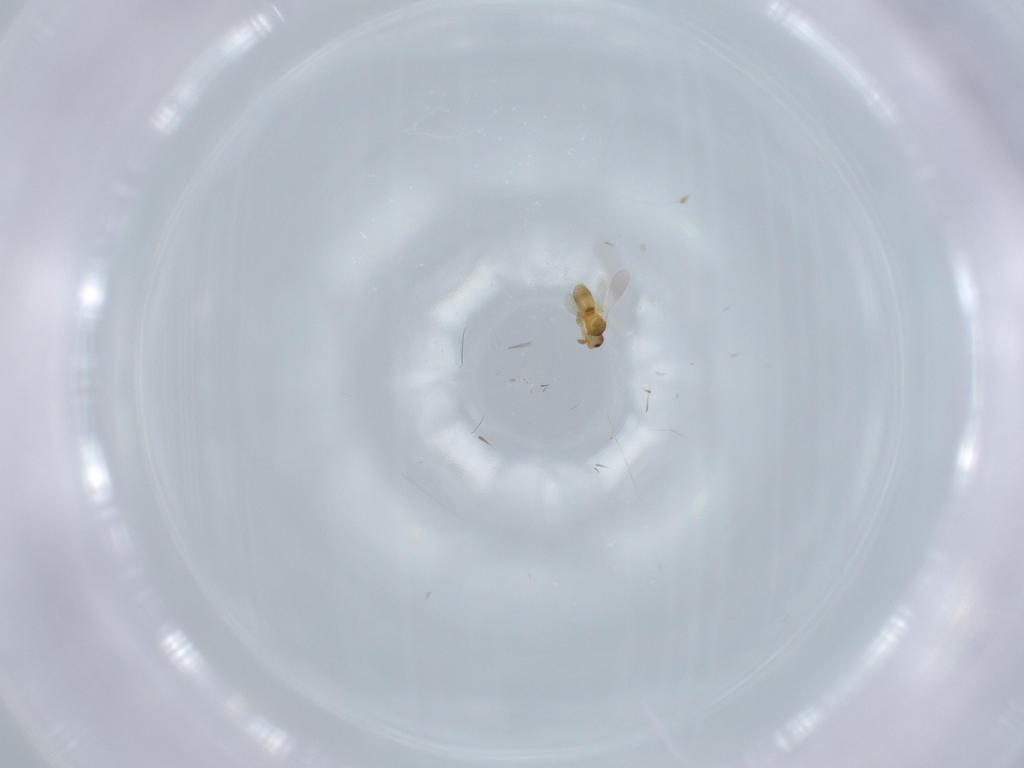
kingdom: Animalia
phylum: Arthropoda
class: Insecta
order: Hymenoptera
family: Platygastridae
